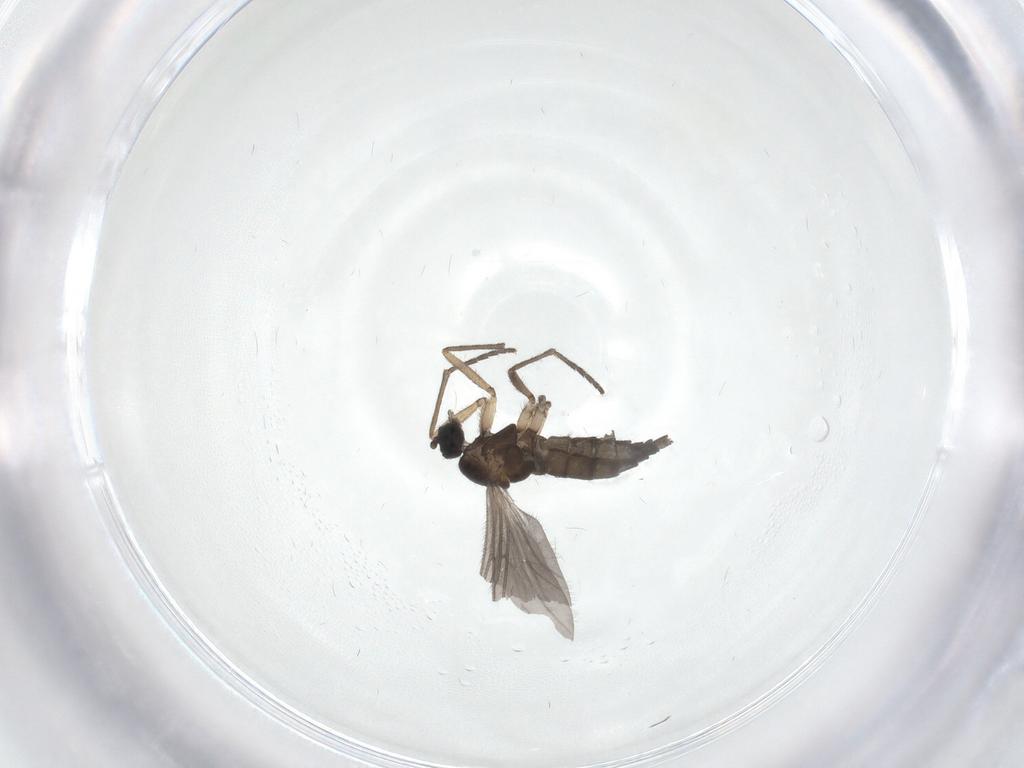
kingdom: Animalia
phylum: Arthropoda
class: Insecta
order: Diptera
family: Sciaridae
